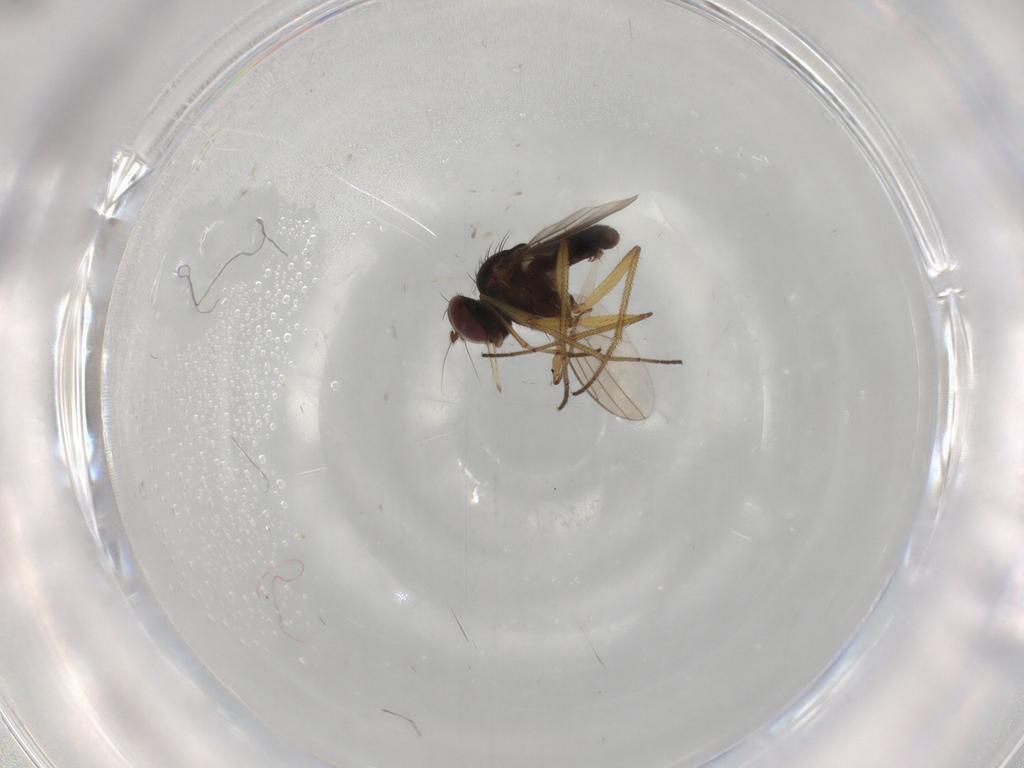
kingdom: Animalia
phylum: Arthropoda
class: Insecta
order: Diptera
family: Dolichopodidae
